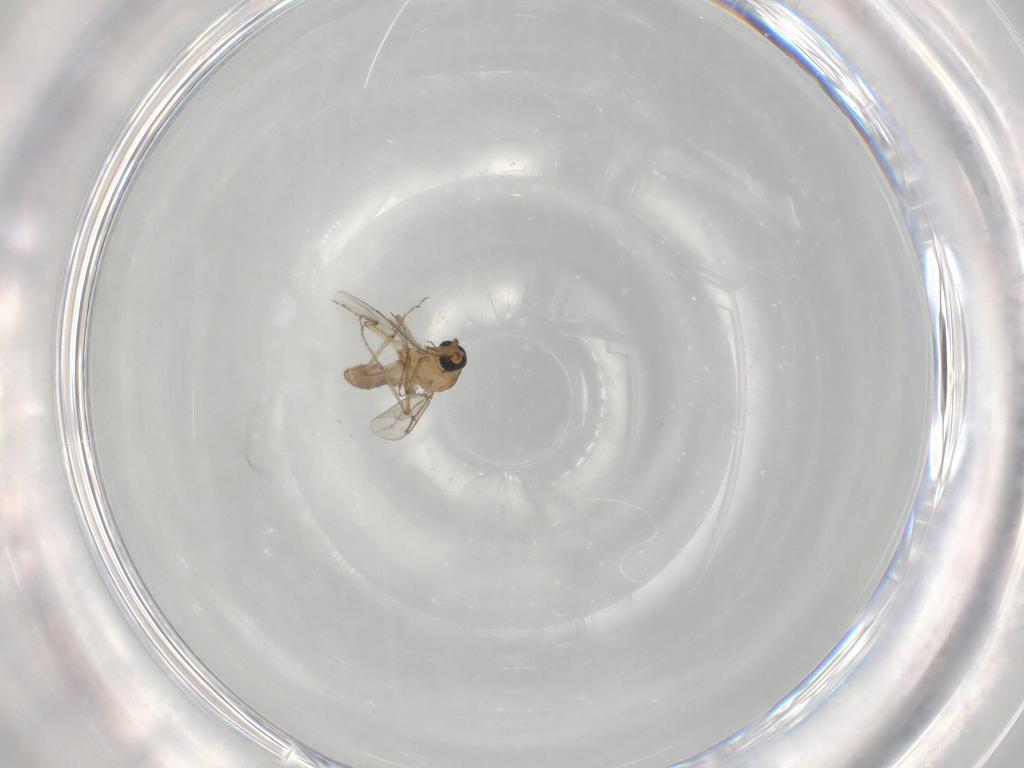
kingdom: Animalia
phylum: Arthropoda
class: Insecta
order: Diptera
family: Ceratopogonidae
